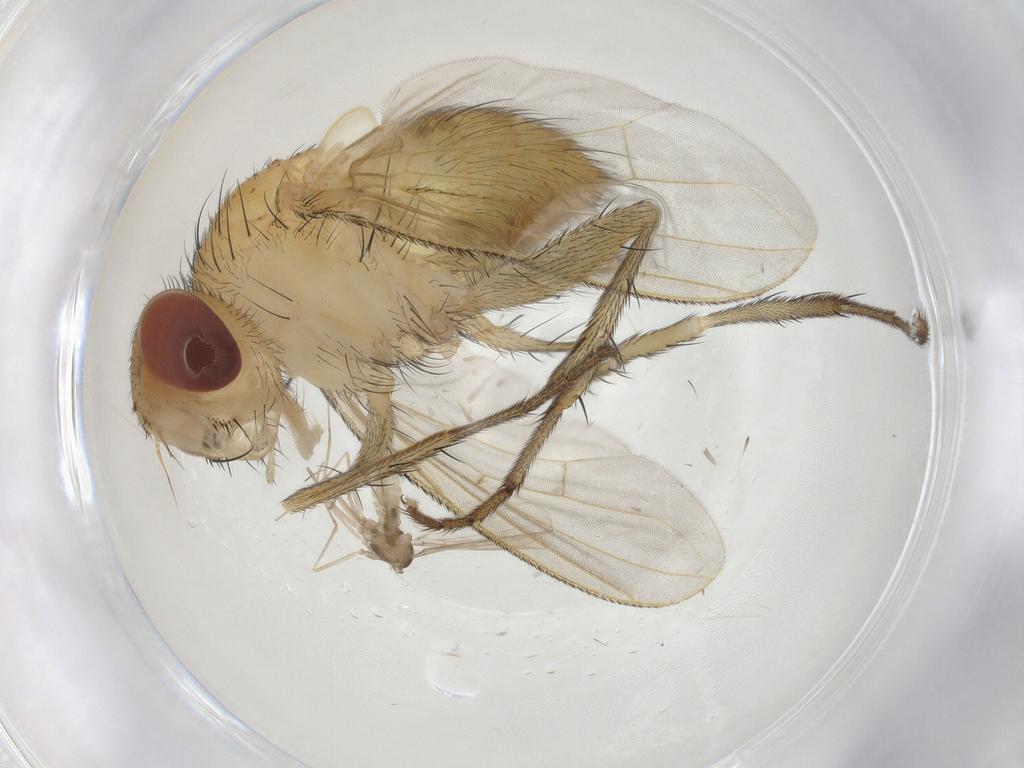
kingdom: Animalia
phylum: Arthropoda
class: Insecta
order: Diptera
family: Cecidomyiidae
